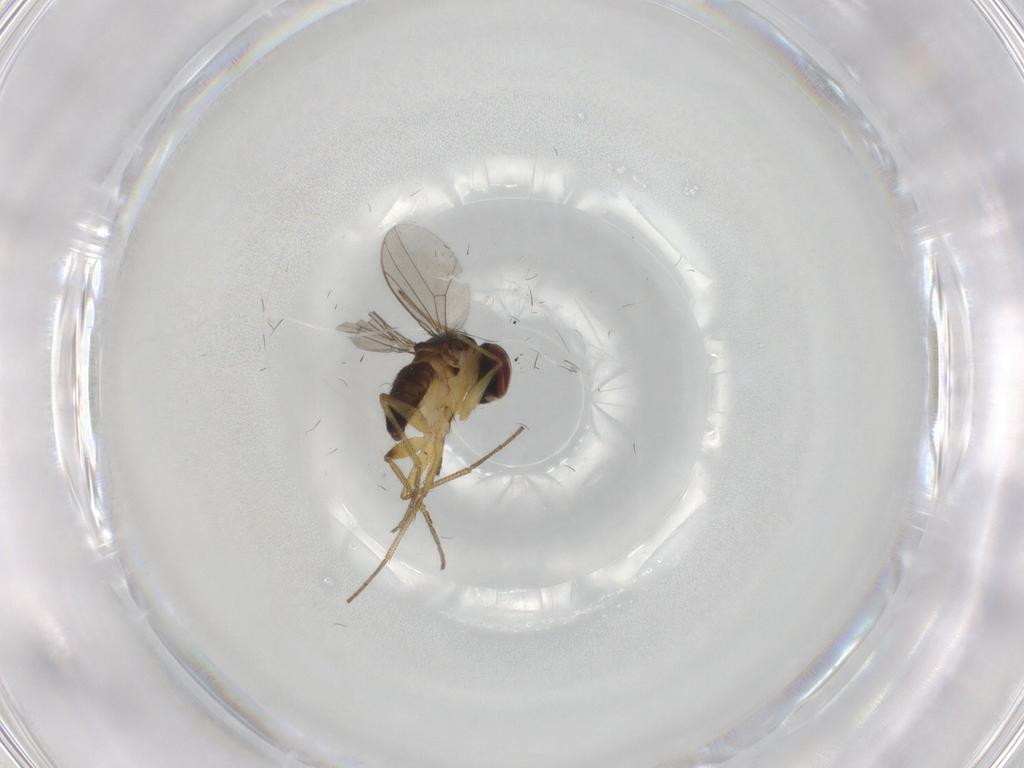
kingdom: Animalia
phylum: Arthropoda
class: Insecta
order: Diptera
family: Dolichopodidae
